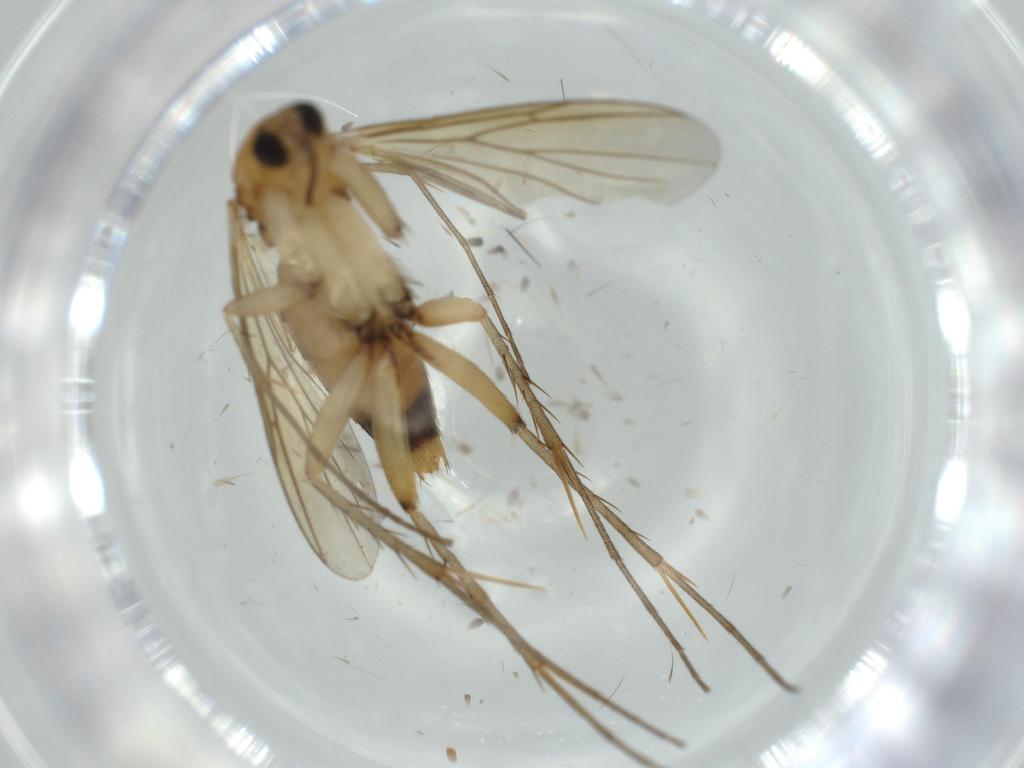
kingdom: Animalia
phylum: Arthropoda
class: Insecta
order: Diptera
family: Mycetophilidae
